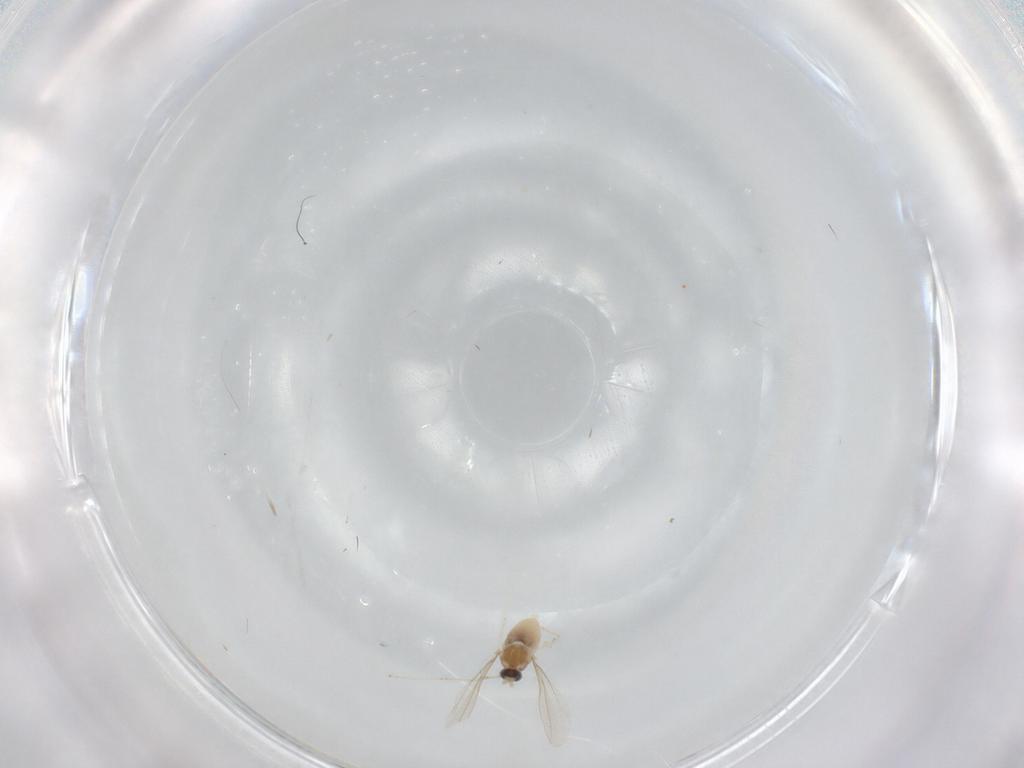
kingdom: Animalia
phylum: Arthropoda
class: Insecta
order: Diptera
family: Cecidomyiidae
